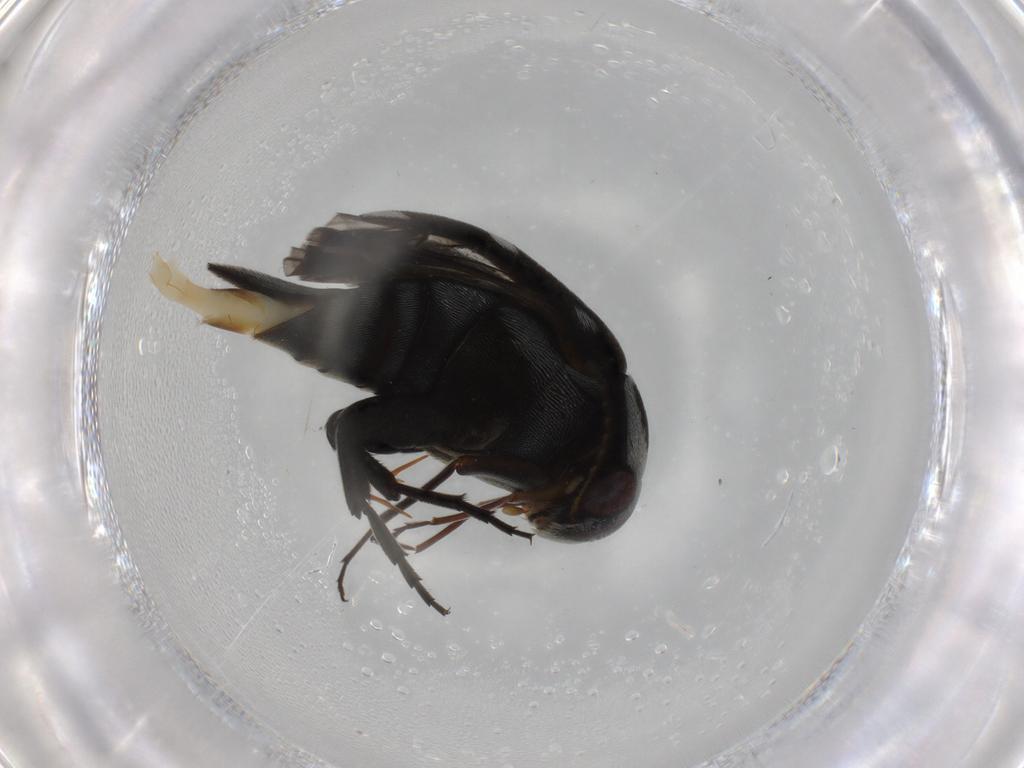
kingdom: Animalia
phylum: Arthropoda
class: Insecta
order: Coleoptera
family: Mordellidae
